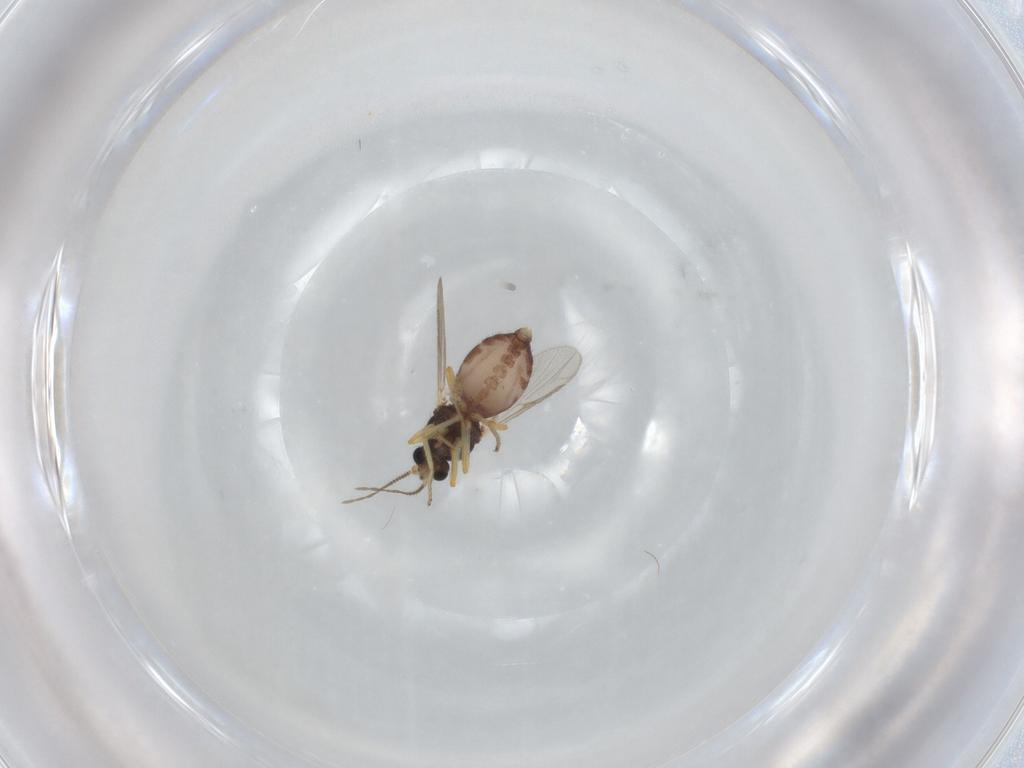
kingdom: Animalia
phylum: Arthropoda
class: Insecta
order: Diptera
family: Ceratopogonidae
